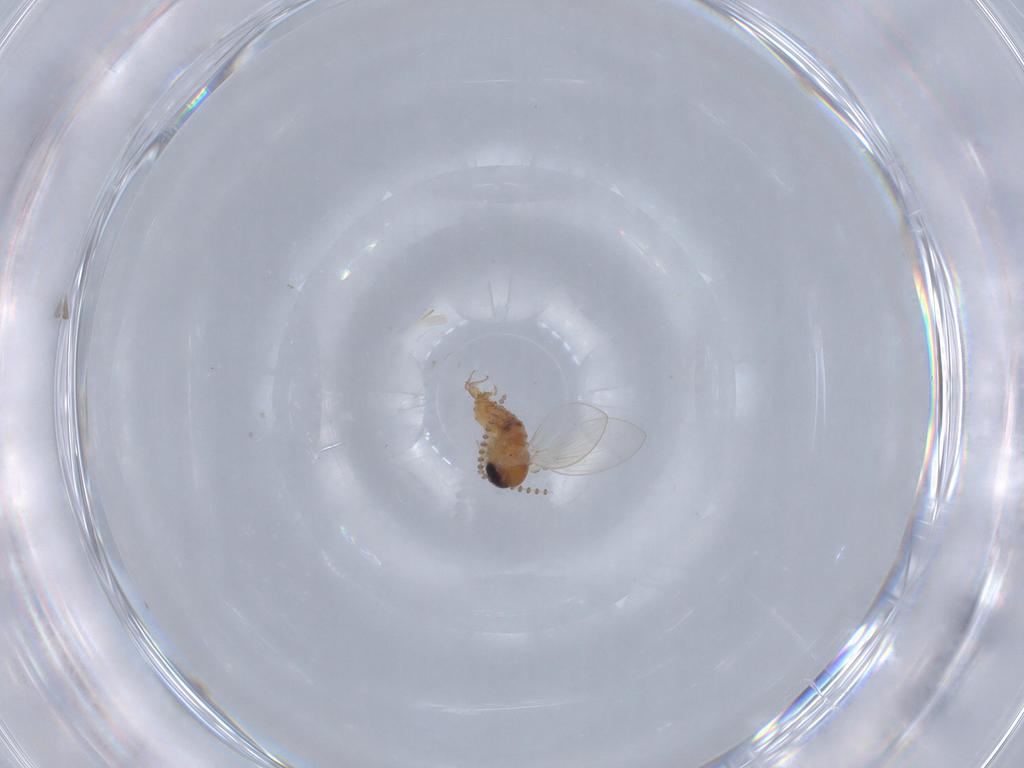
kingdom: Animalia
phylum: Arthropoda
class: Insecta
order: Diptera
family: Psychodidae
